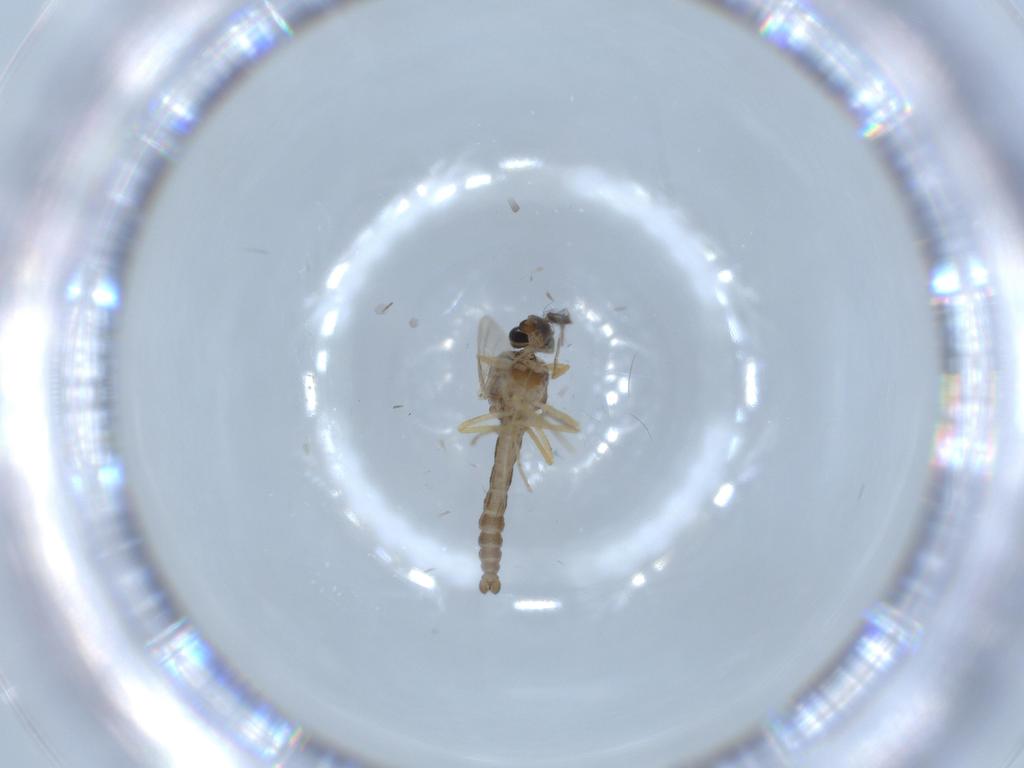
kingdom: Animalia
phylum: Arthropoda
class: Insecta
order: Diptera
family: Ceratopogonidae
